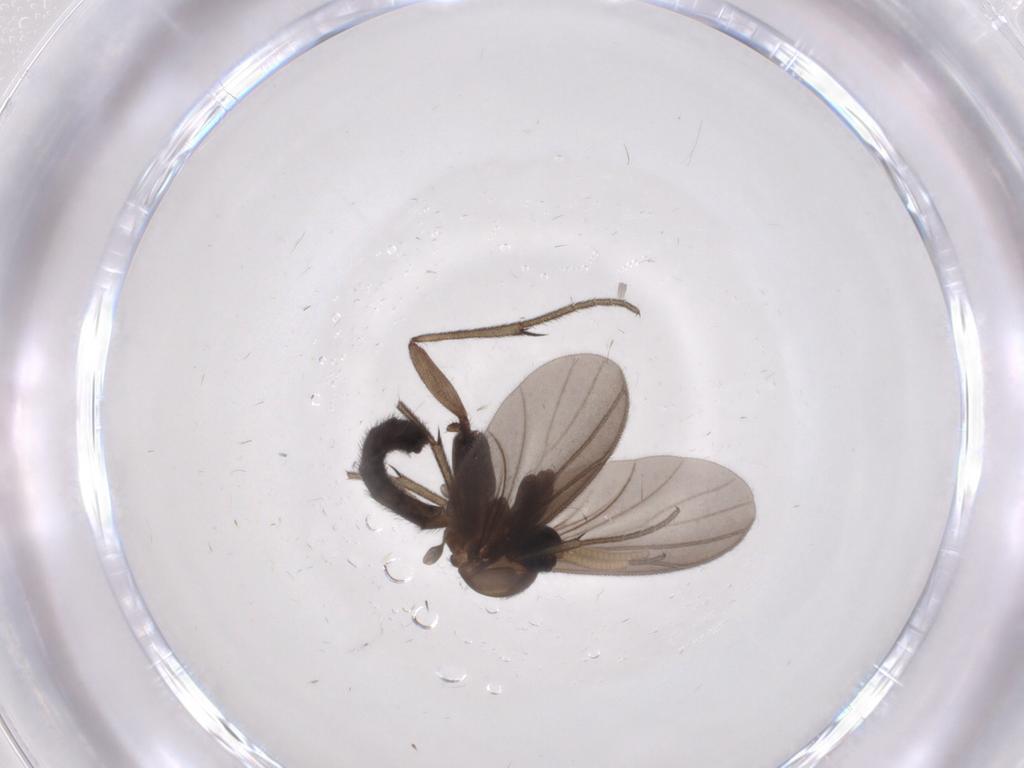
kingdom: Animalia
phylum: Arthropoda
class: Insecta
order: Diptera
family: Mycetophilidae
